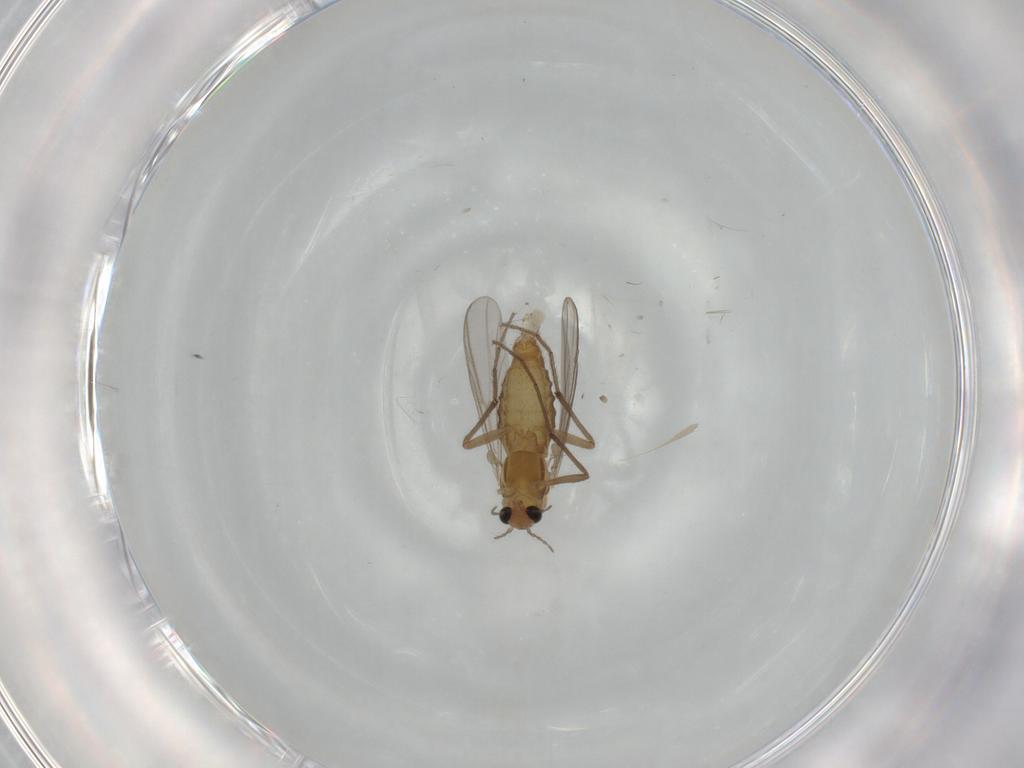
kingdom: Animalia
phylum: Arthropoda
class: Insecta
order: Diptera
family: Chironomidae
